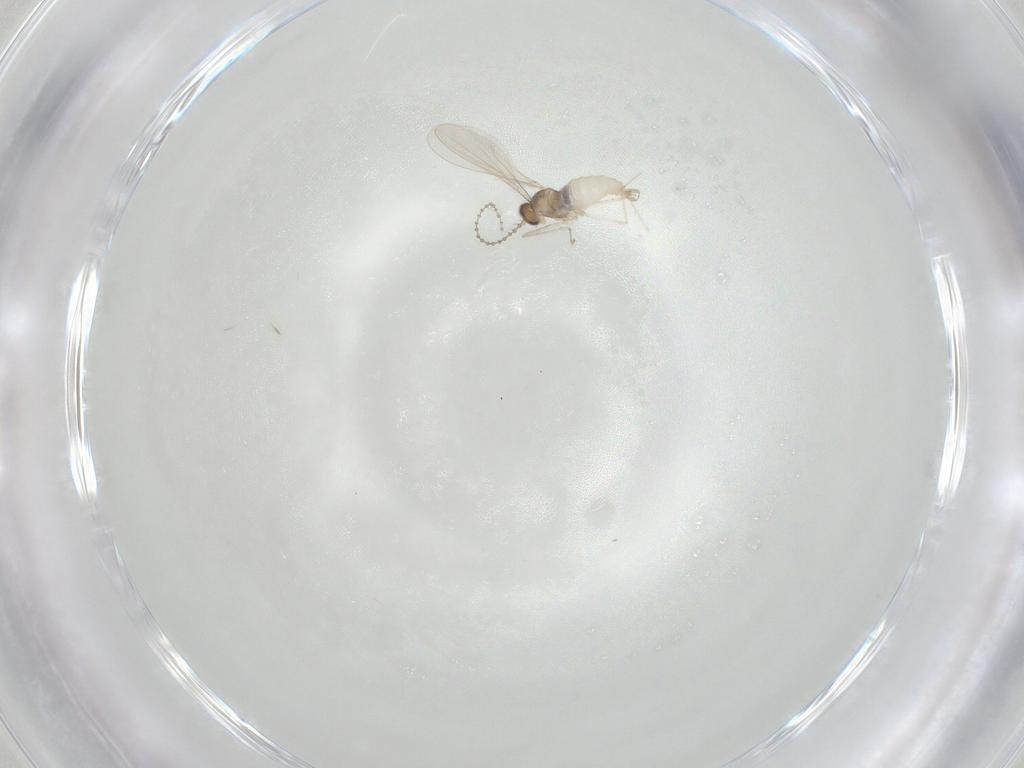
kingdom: Animalia
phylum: Arthropoda
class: Insecta
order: Diptera
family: Cecidomyiidae
